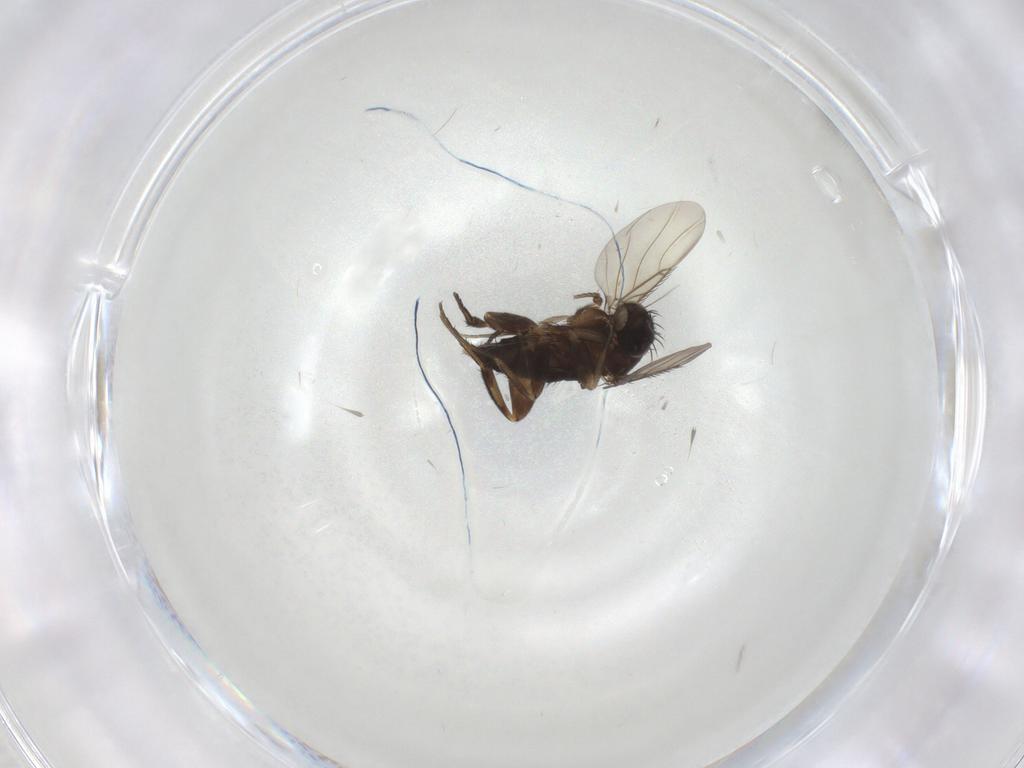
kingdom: Animalia
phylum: Arthropoda
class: Insecta
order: Diptera
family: Phoridae
